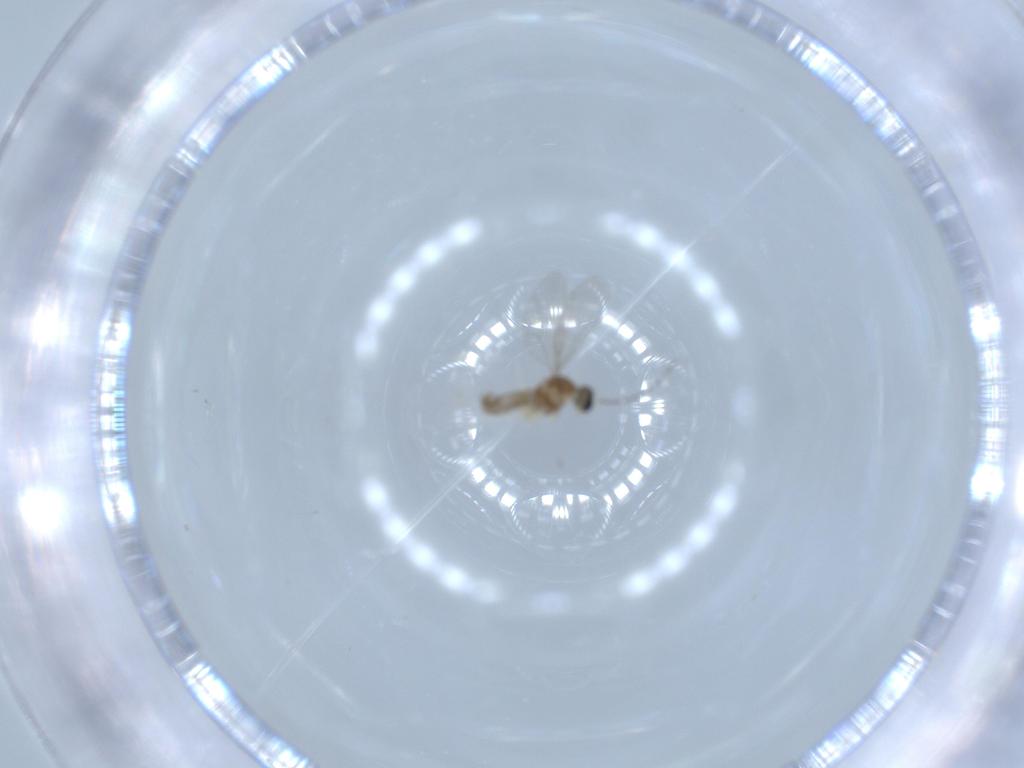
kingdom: Animalia
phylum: Arthropoda
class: Insecta
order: Diptera
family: Cecidomyiidae
